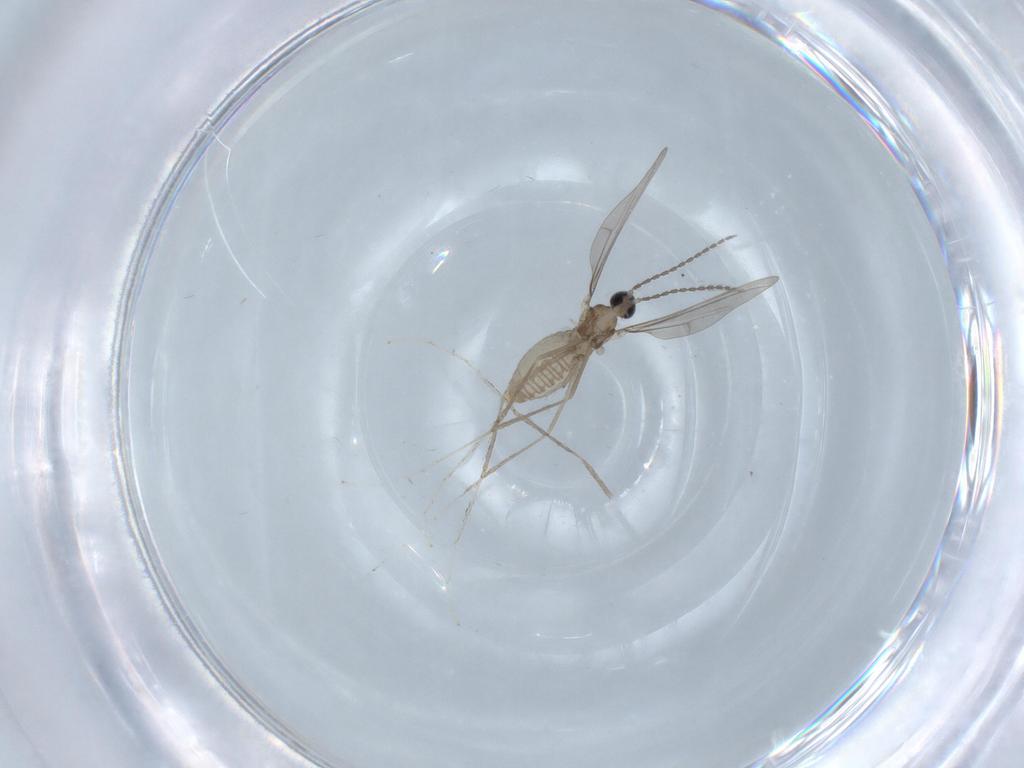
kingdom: Animalia
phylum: Arthropoda
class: Insecta
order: Diptera
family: Cecidomyiidae
